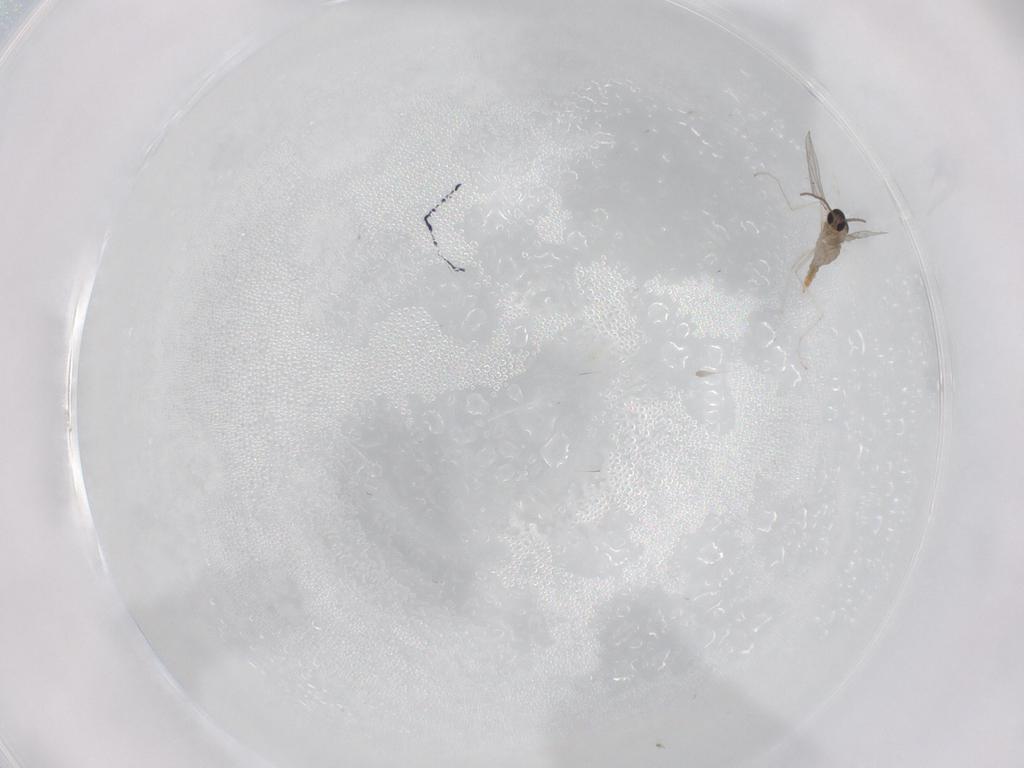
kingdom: Animalia
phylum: Arthropoda
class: Insecta
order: Diptera
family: Cecidomyiidae
